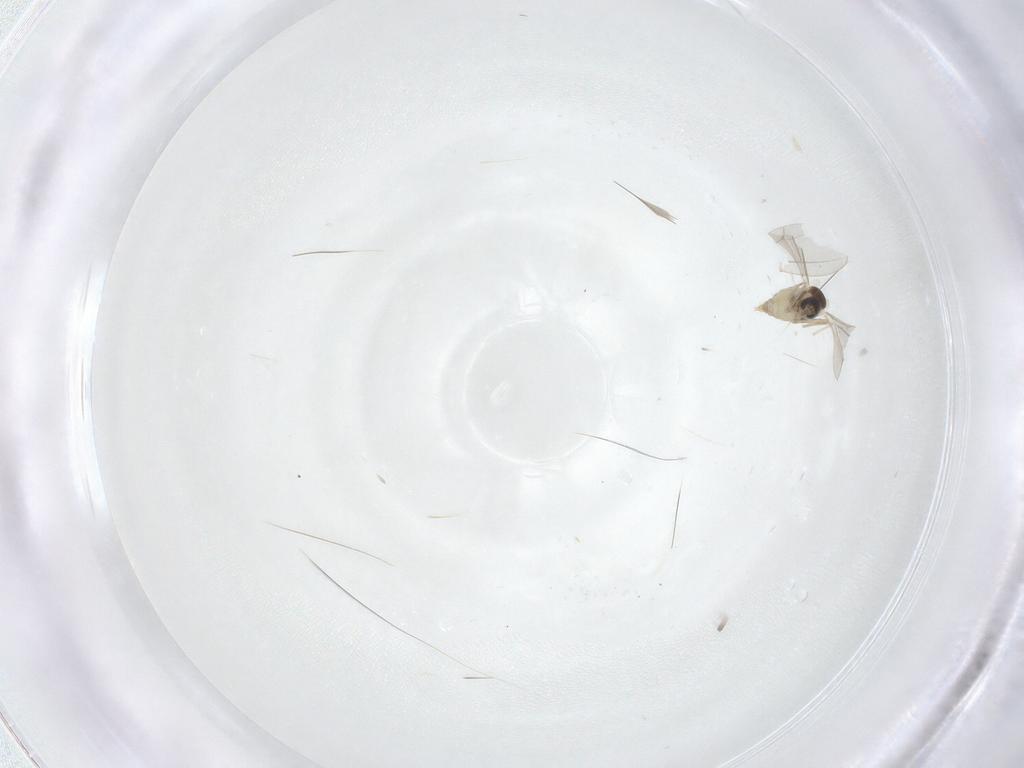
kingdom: Animalia
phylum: Arthropoda
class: Insecta
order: Diptera
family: Cecidomyiidae
